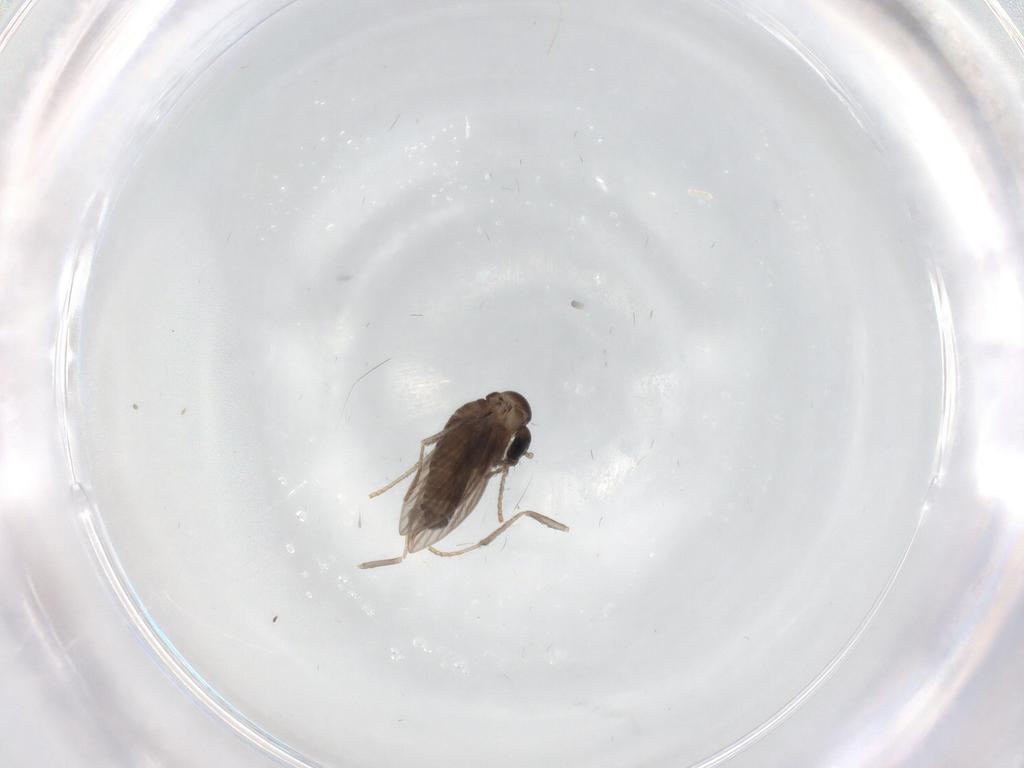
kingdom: Animalia
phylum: Arthropoda
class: Insecta
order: Diptera
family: Psychodidae
